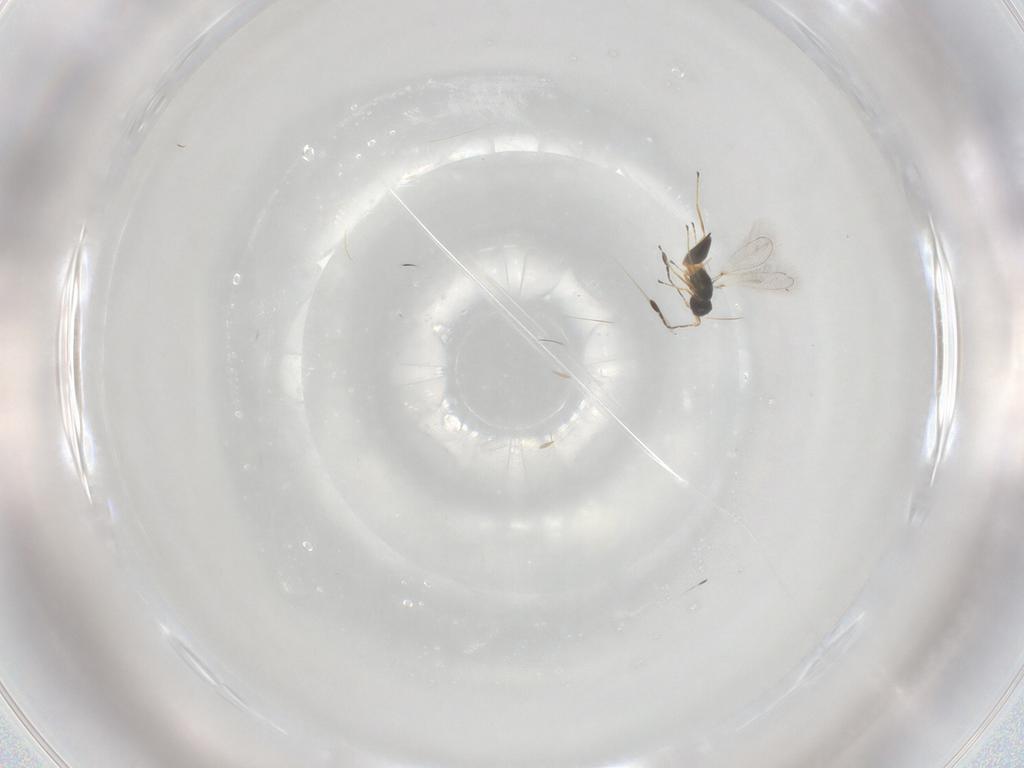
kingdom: Animalia
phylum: Arthropoda
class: Insecta
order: Hymenoptera
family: Mymaridae
